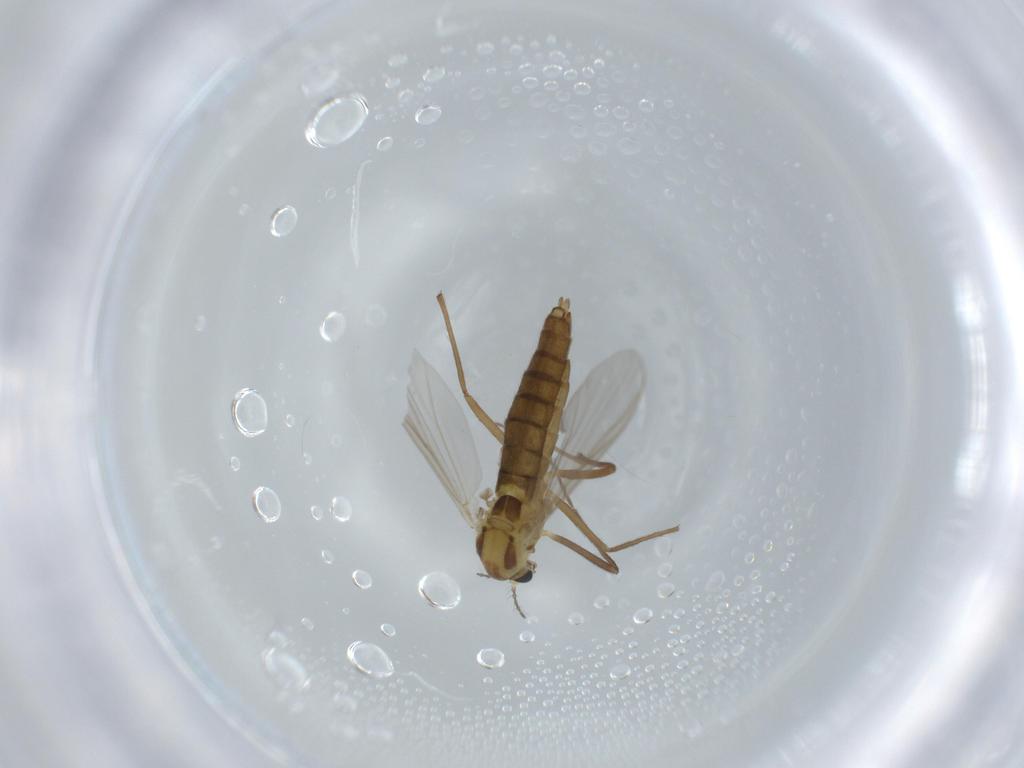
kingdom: Animalia
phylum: Arthropoda
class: Insecta
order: Diptera
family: Chironomidae
